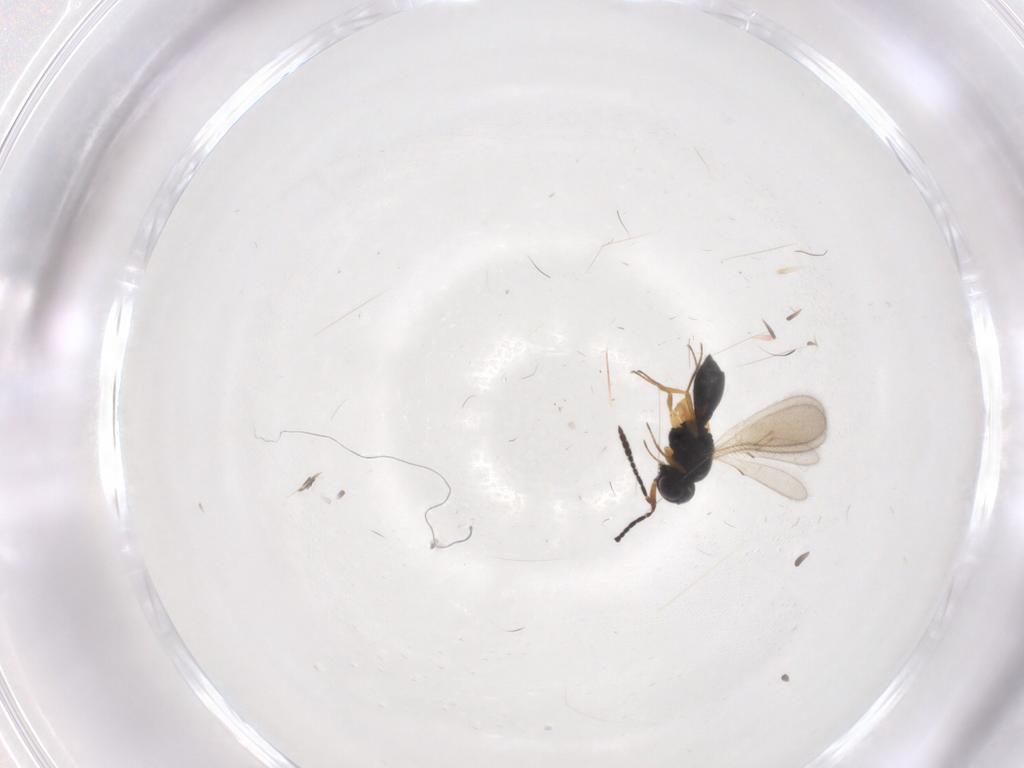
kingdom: Animalia
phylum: Arthropoda
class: Insecta
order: Hymenoptera
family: Scelionidae
